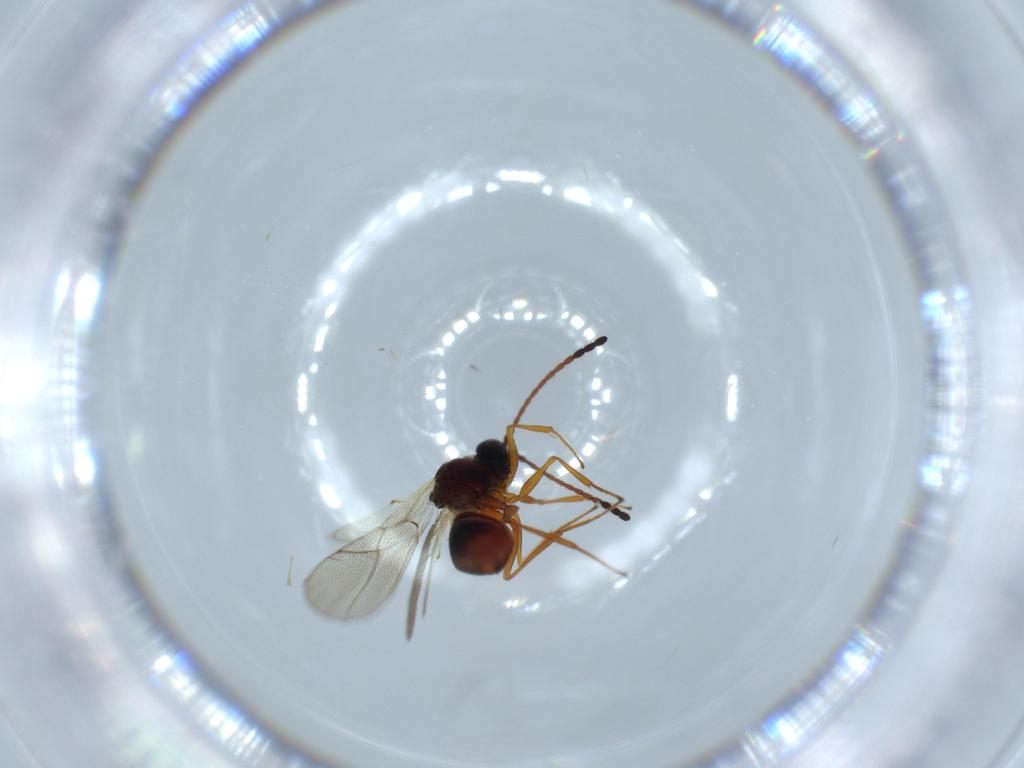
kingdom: Animalia
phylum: Arthropoda
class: Insecta
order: Hymenoptera
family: Figitidae
